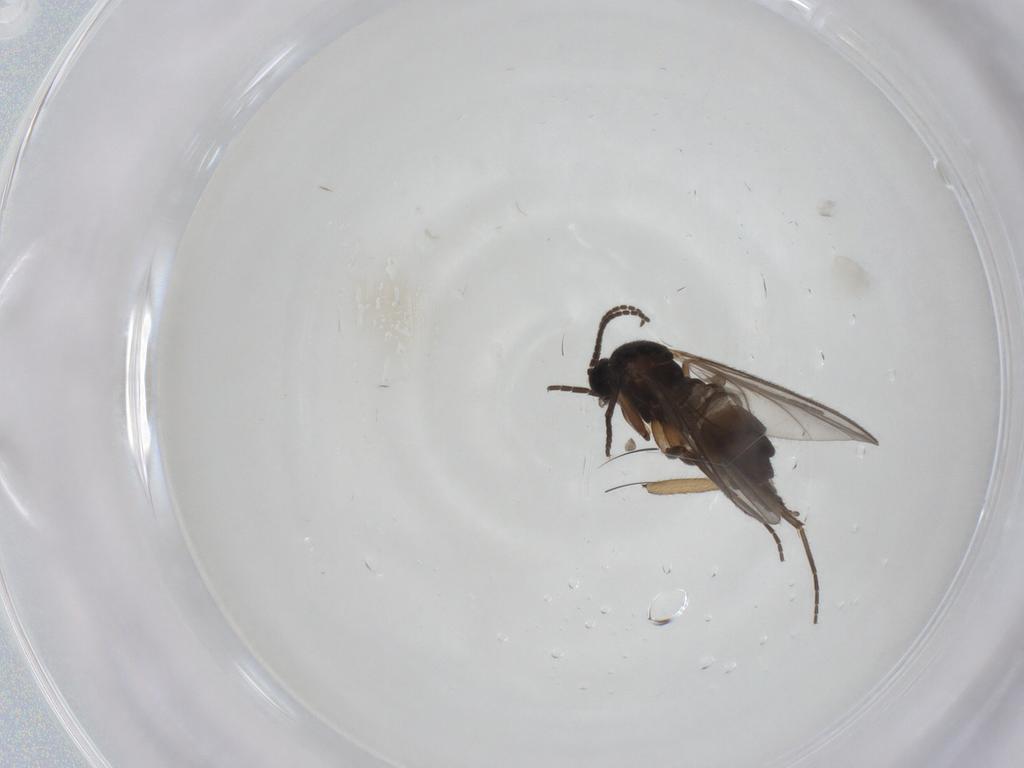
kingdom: Animalia
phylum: Arthropoda
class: Insecta
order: Diptera
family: Sciaridae
